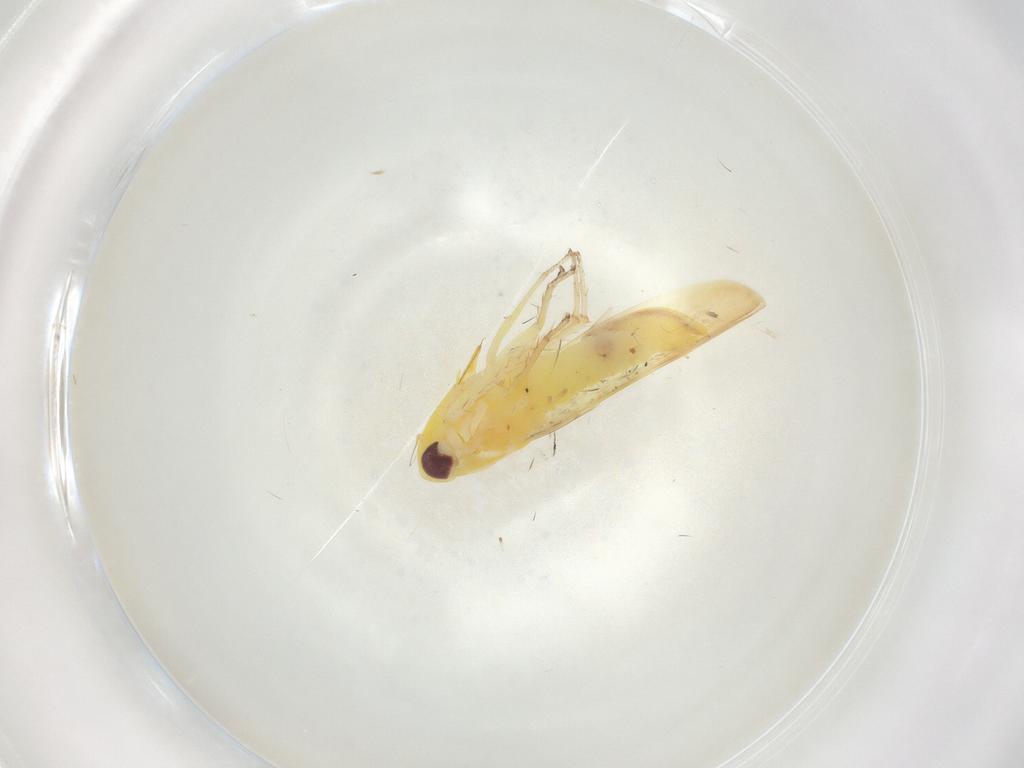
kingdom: Animalia
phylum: Arthropoda
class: Insecta
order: Hemiptera
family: Cicadellidae
